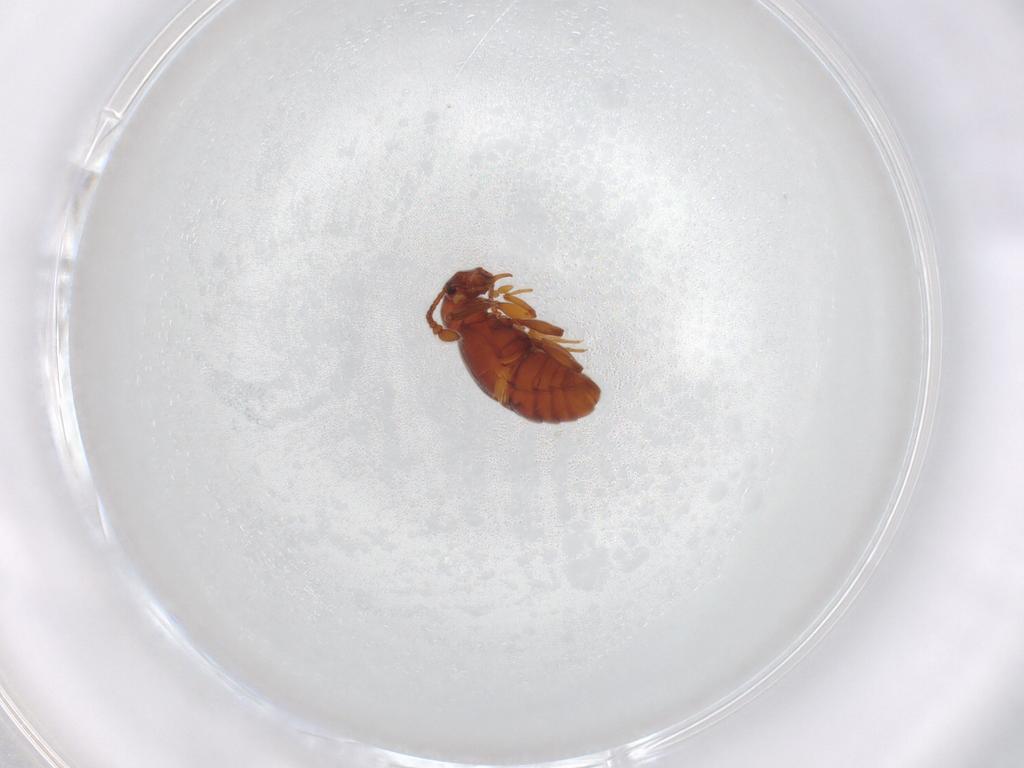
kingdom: Animalia
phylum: Arthropoda
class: Insecta
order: Coleoptera
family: Staphylinidae
